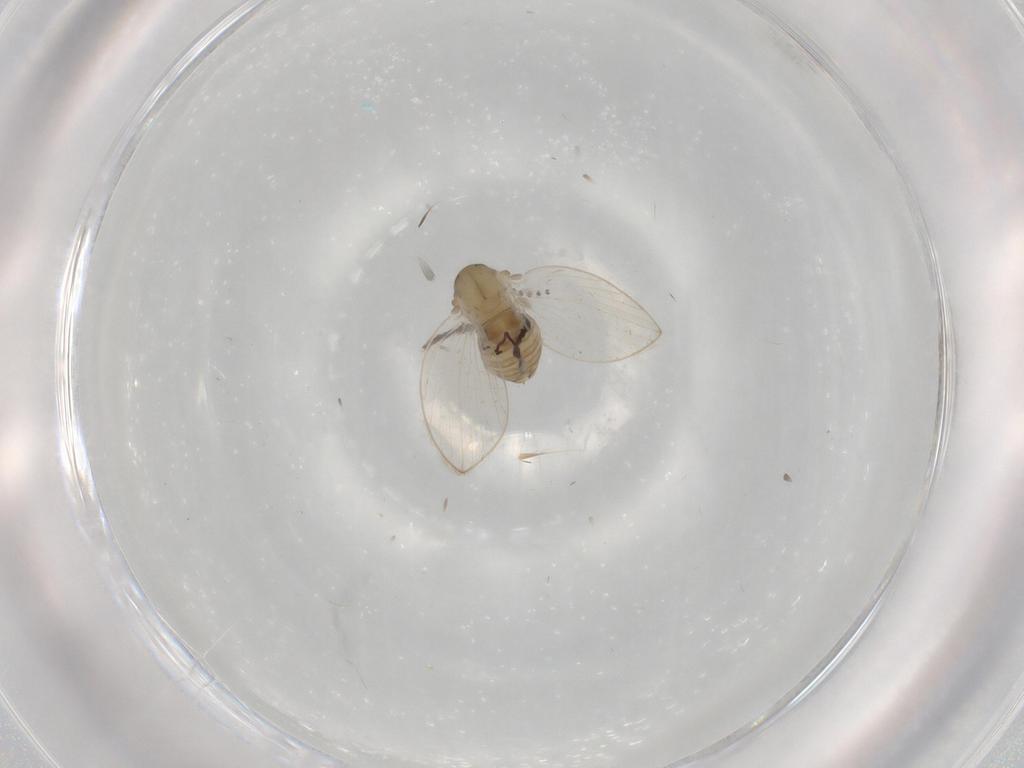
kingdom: Animalia
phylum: Arthropoda
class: Insecta
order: Diptera
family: Psychodidae
